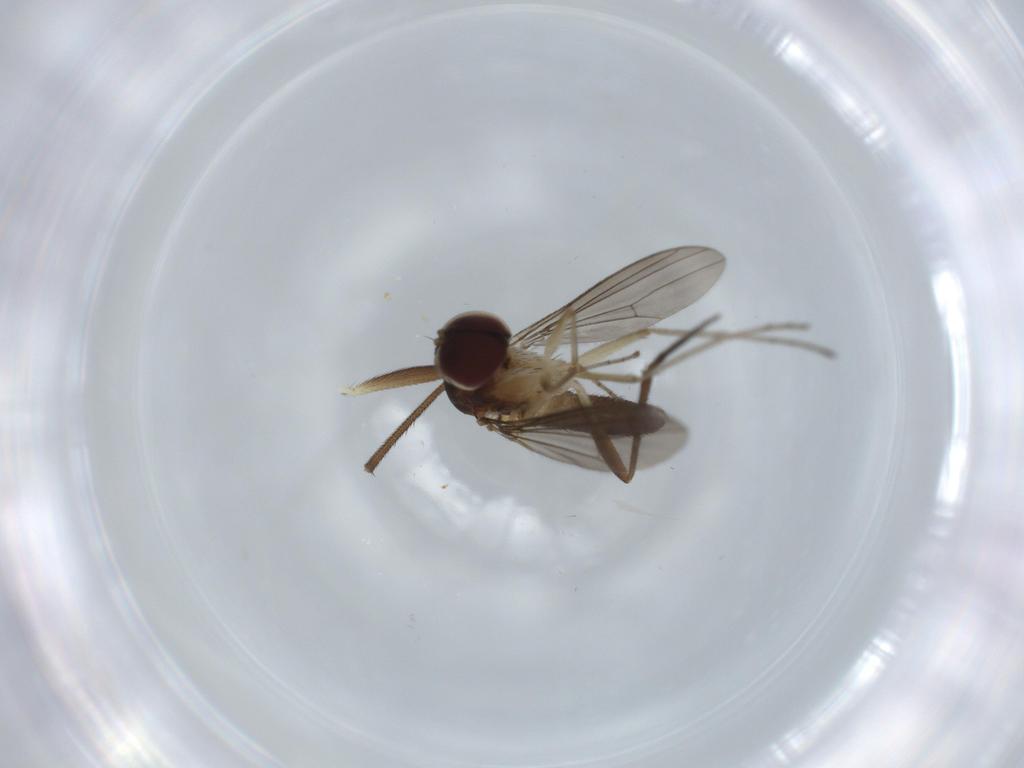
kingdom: Animalia
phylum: Arthropoda
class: Insecta
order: Diptera
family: Dolichopodidae
